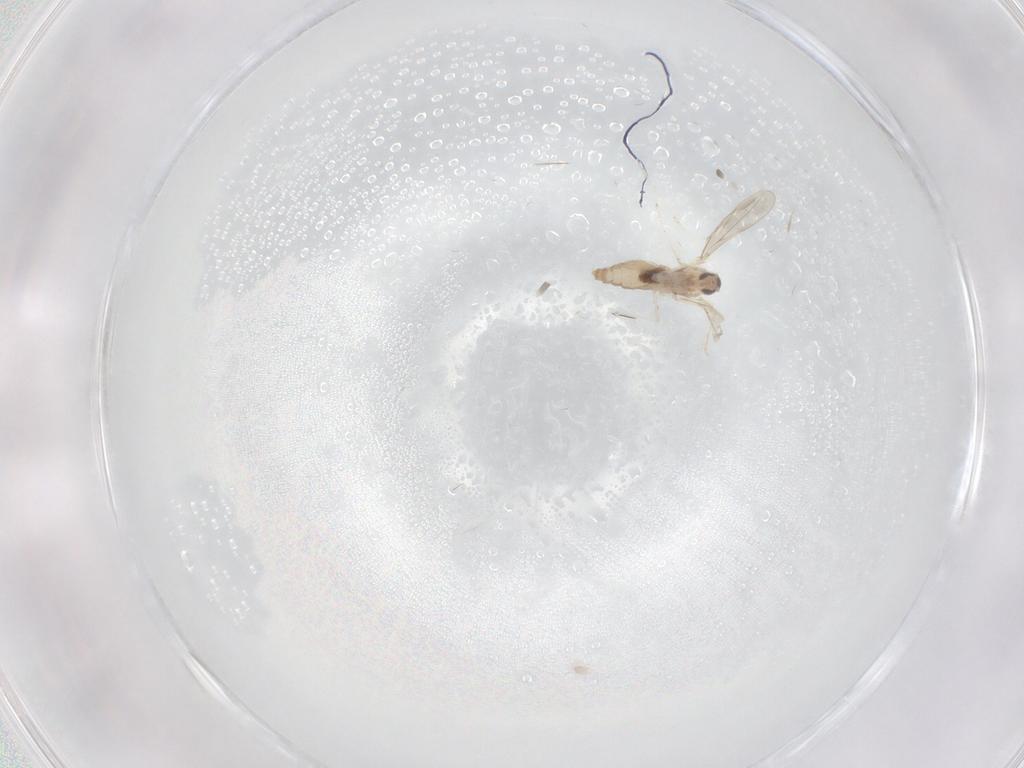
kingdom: Animalia
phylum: Arthropoda
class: Insecta
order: Diptera
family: Cecidomyiidae
